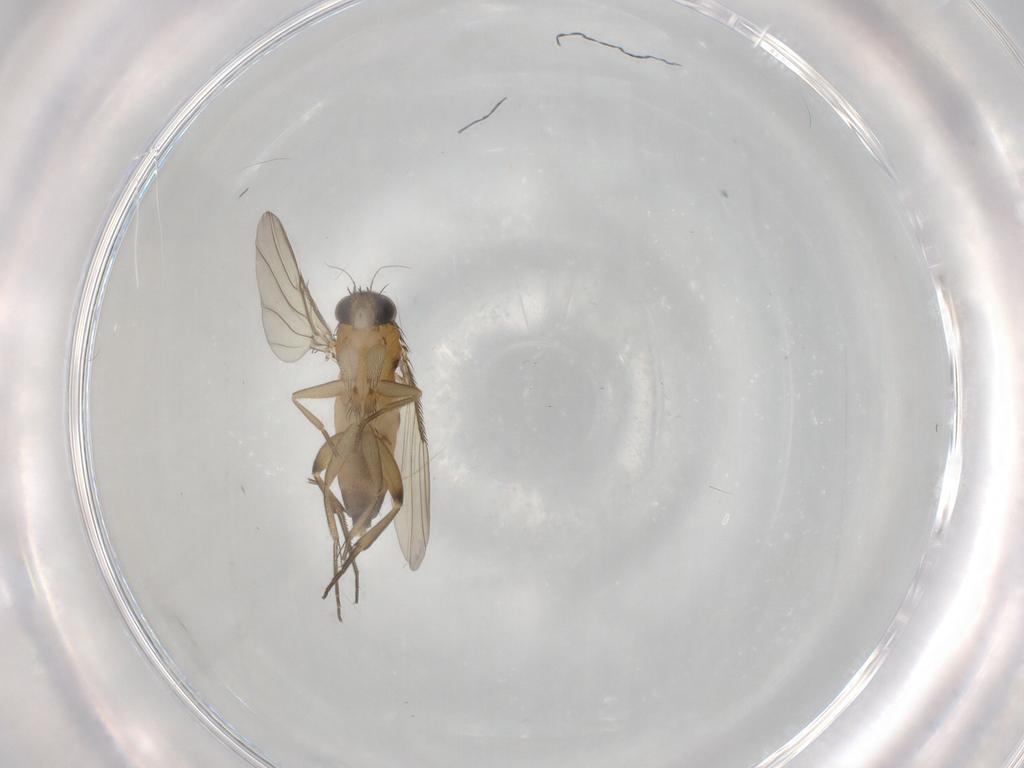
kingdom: Animalia
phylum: Arthropoda
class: Insecta
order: Diptera
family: Phoridae
